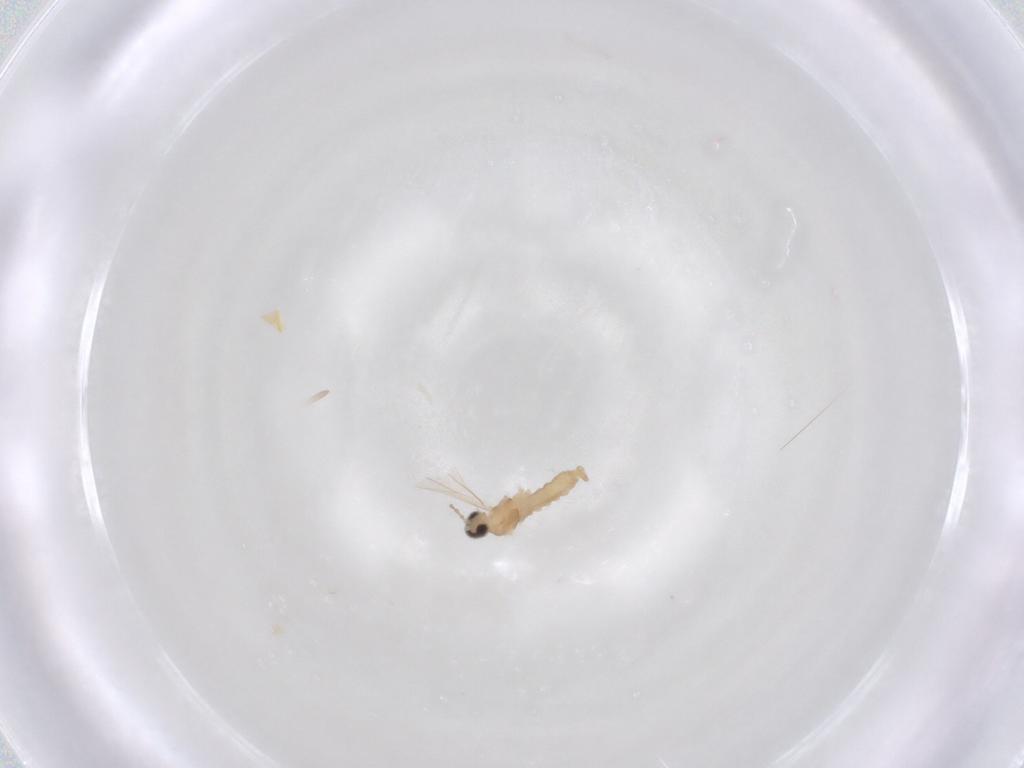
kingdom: Animalia
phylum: Arthropoda
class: Insecta
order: Diptera
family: Cecidomyiidae
